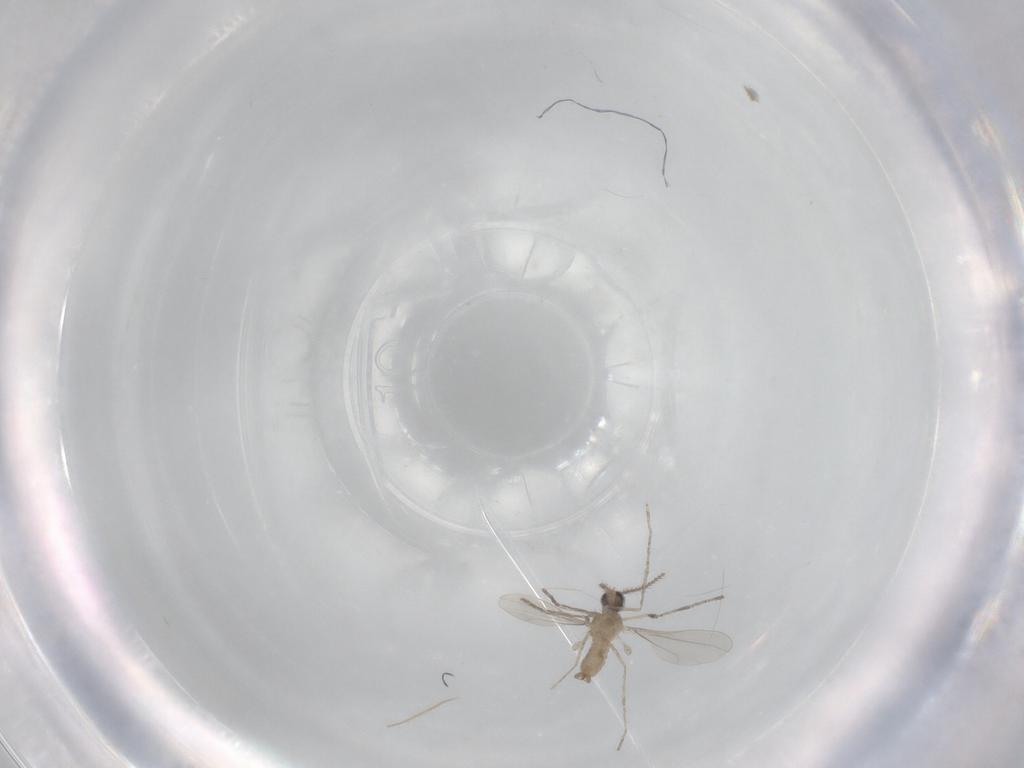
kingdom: Animalia
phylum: Arthropoda
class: Insecta
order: Diptera
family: Cecidomyiidae
